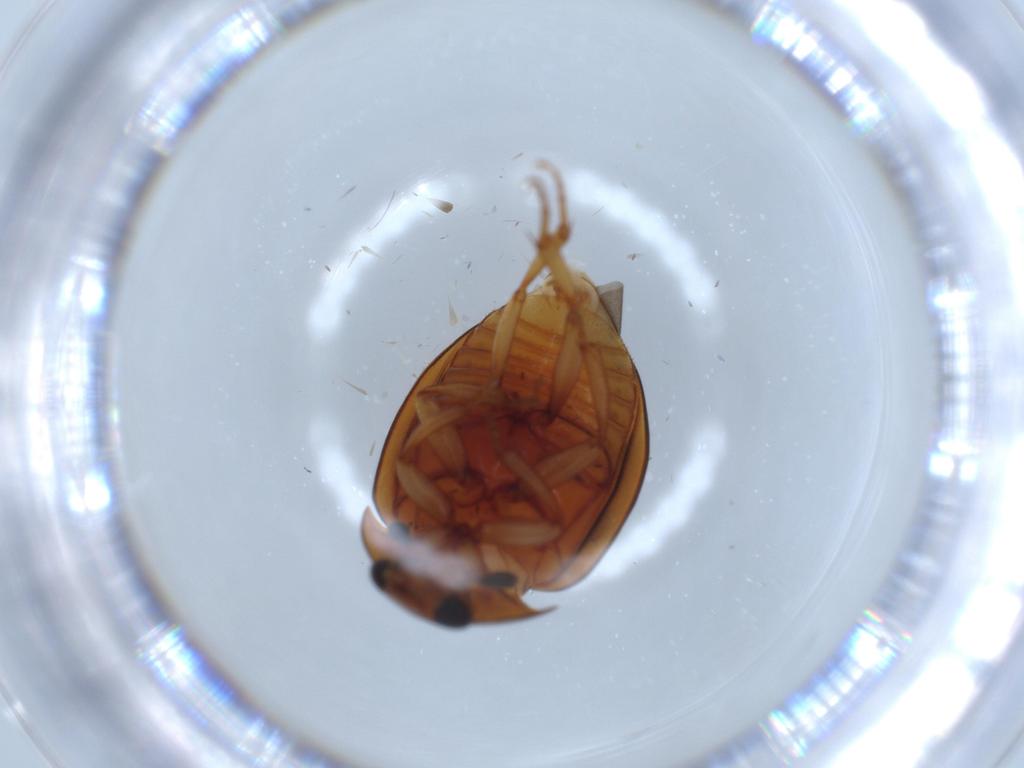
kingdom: Animalia
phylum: Arthropoda
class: Insecta
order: Coleoptera
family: Nitidulidae
